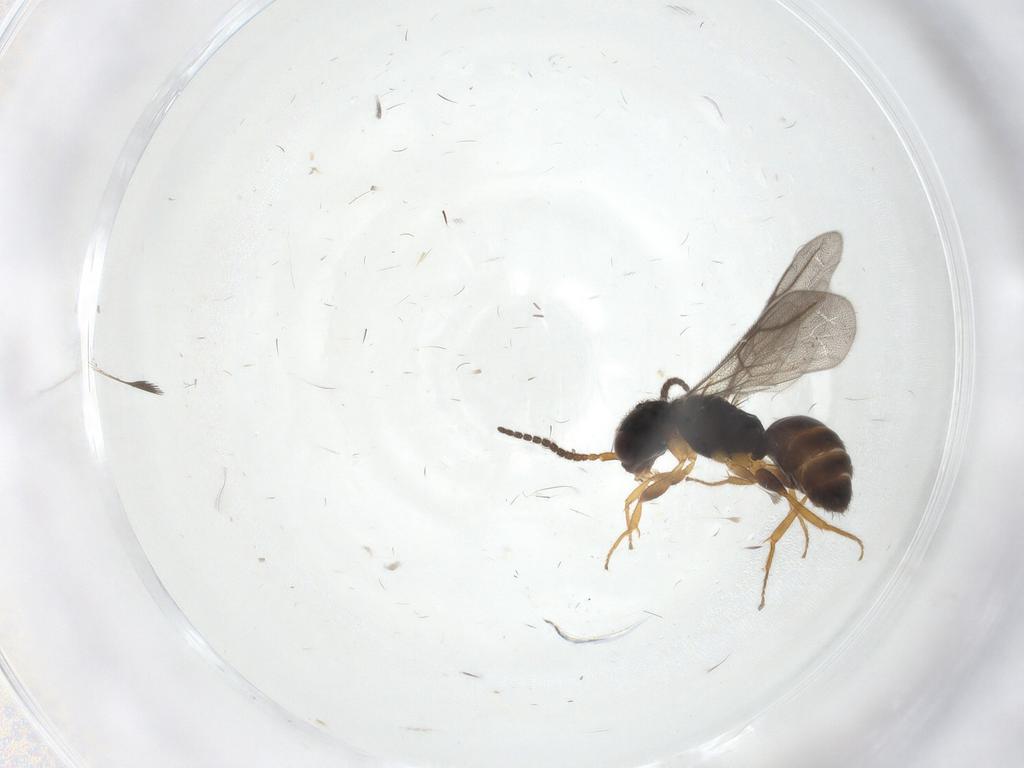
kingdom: Animalia
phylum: Arthropoda
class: Insecta
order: Hymenoptera
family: Bethylidae
